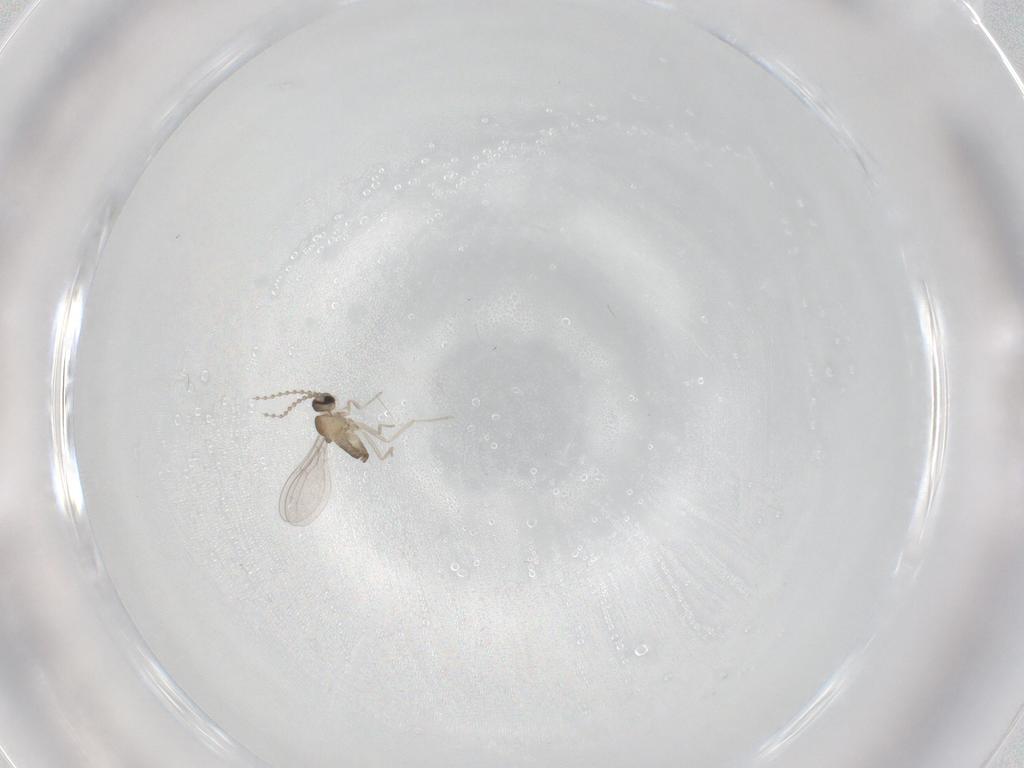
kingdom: Animalia
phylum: Arthropoda
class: Insecta
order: Diptera
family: Cecidomyiidae
